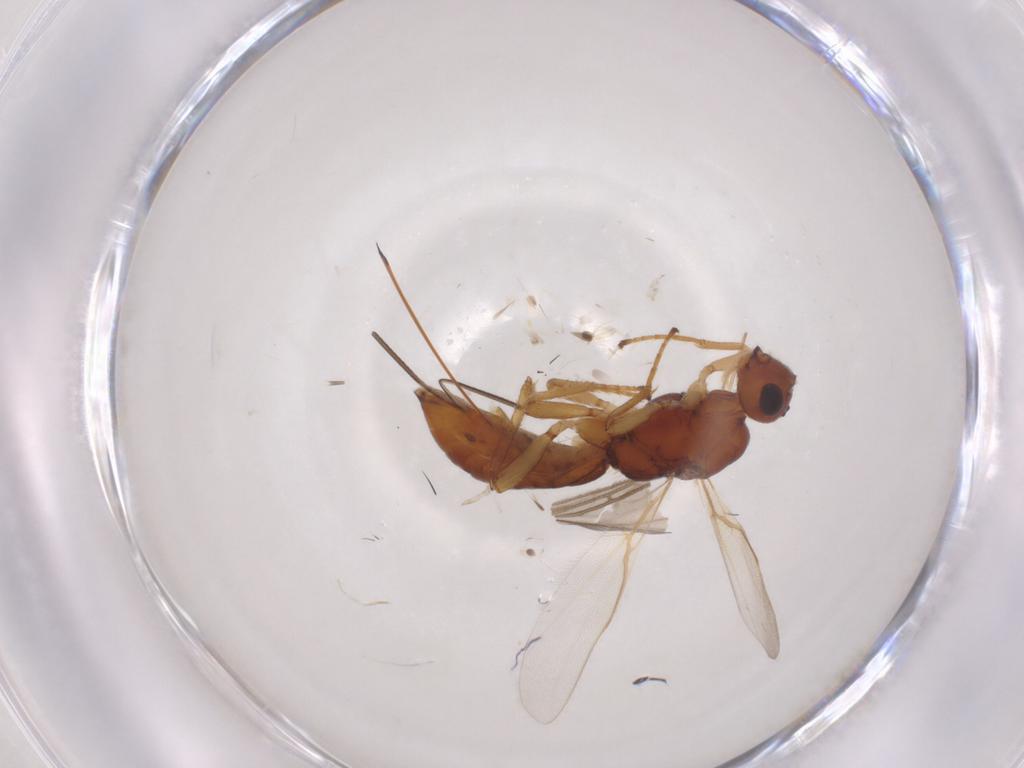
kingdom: Animalia
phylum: Arthropoda
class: Insecta
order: Hymenoptera
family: Braconidae
